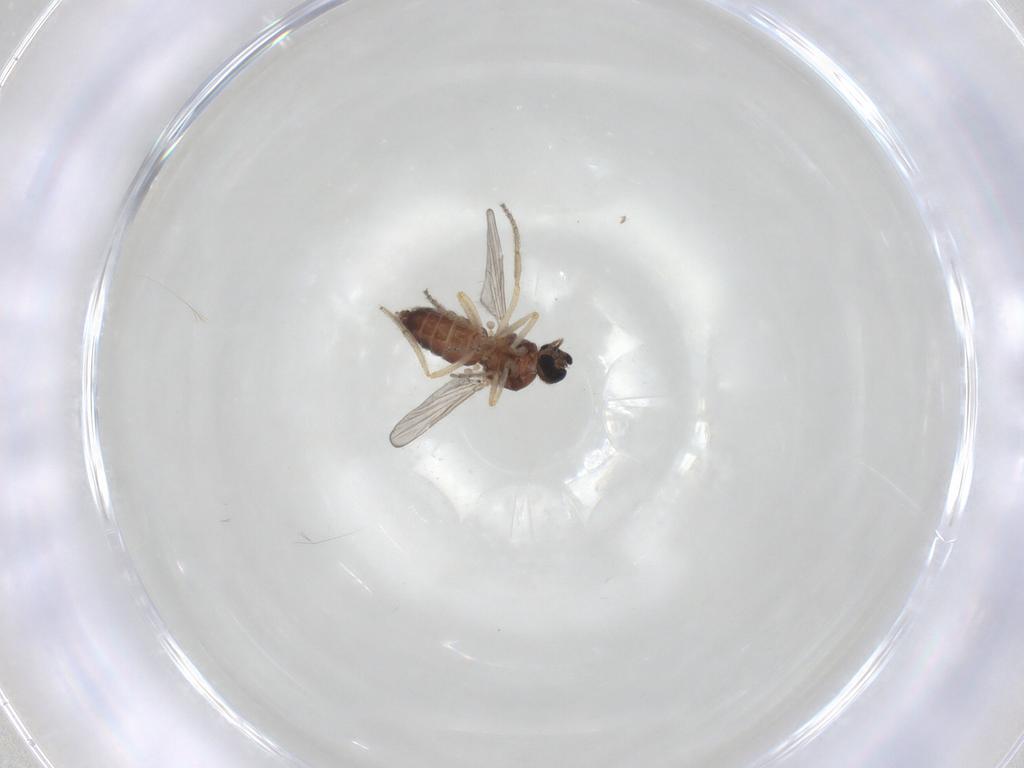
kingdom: Animalia
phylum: Arthropoda
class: Insecta
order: Diptera
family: Ceratopogonidae
